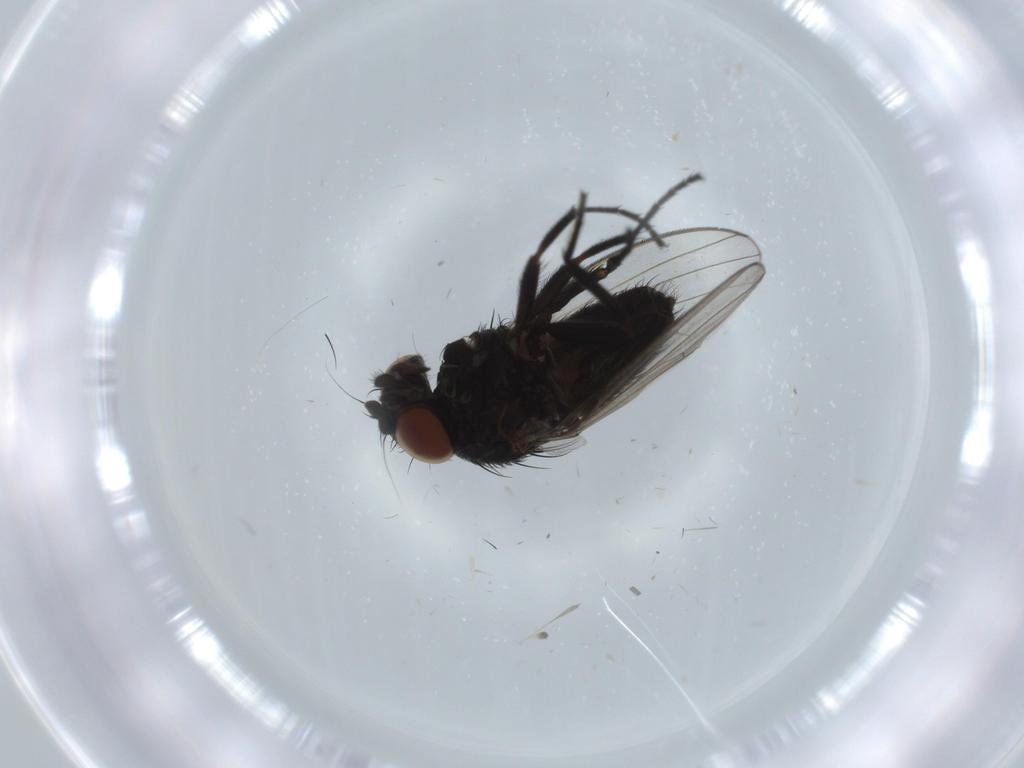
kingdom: Animalia
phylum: Arthropoda
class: Insecta
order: Diptera
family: Milichiidae
